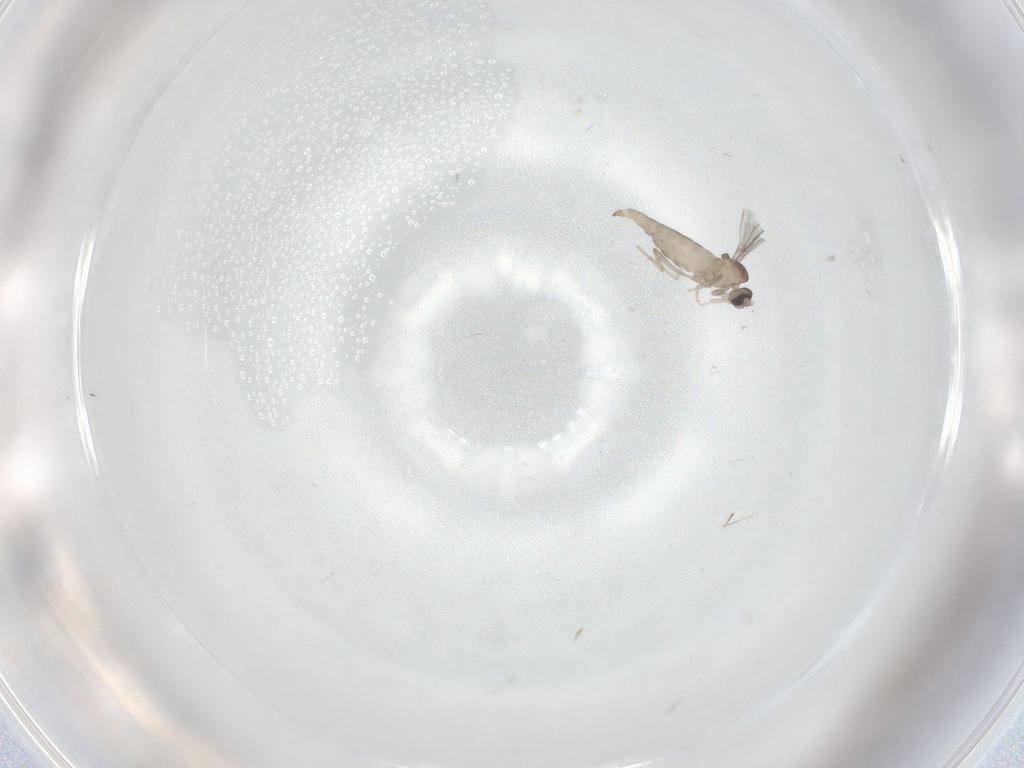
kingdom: Animalia
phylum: Arthropoda
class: Insecta
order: Diptera
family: Cecidomyiidae
